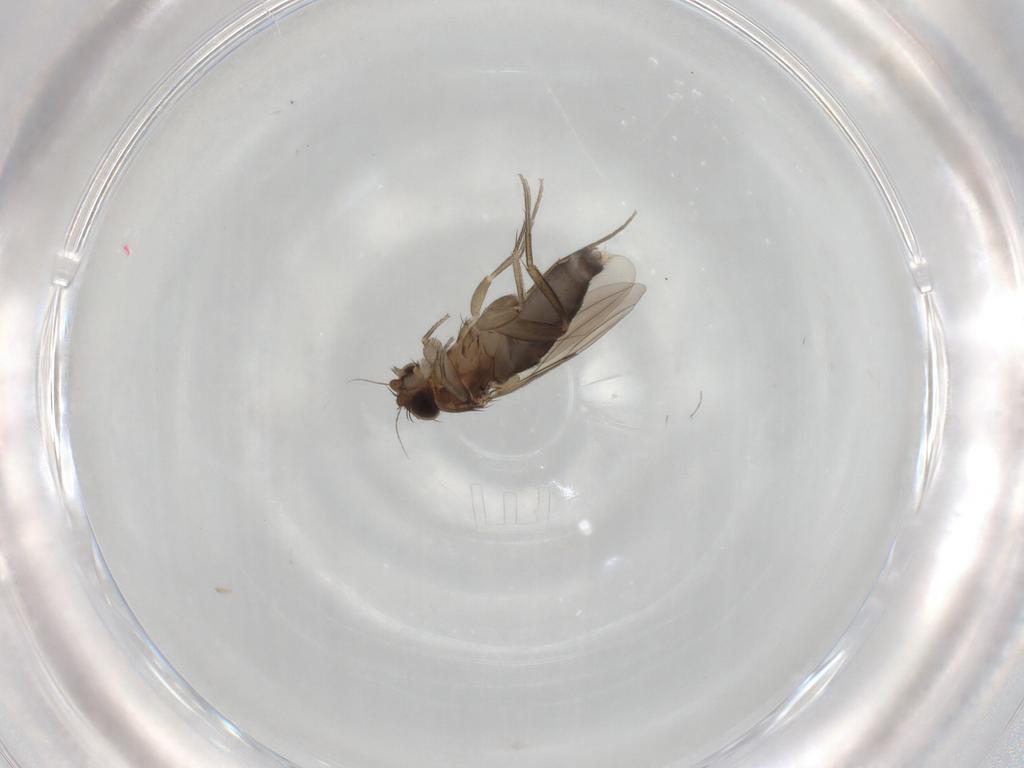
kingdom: Animalia
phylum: Arthropoda
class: Insecta
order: Diptera
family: Phoridae
